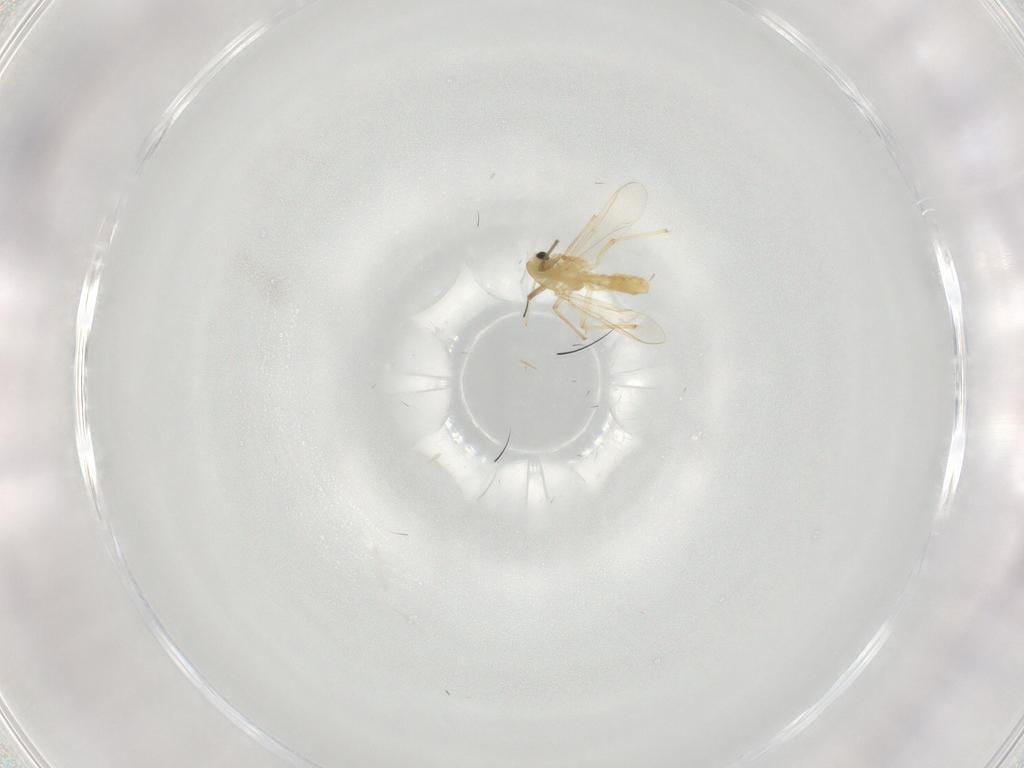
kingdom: Animalia
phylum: Arthropoda
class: Insecta
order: Diptera
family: Chironomidae
